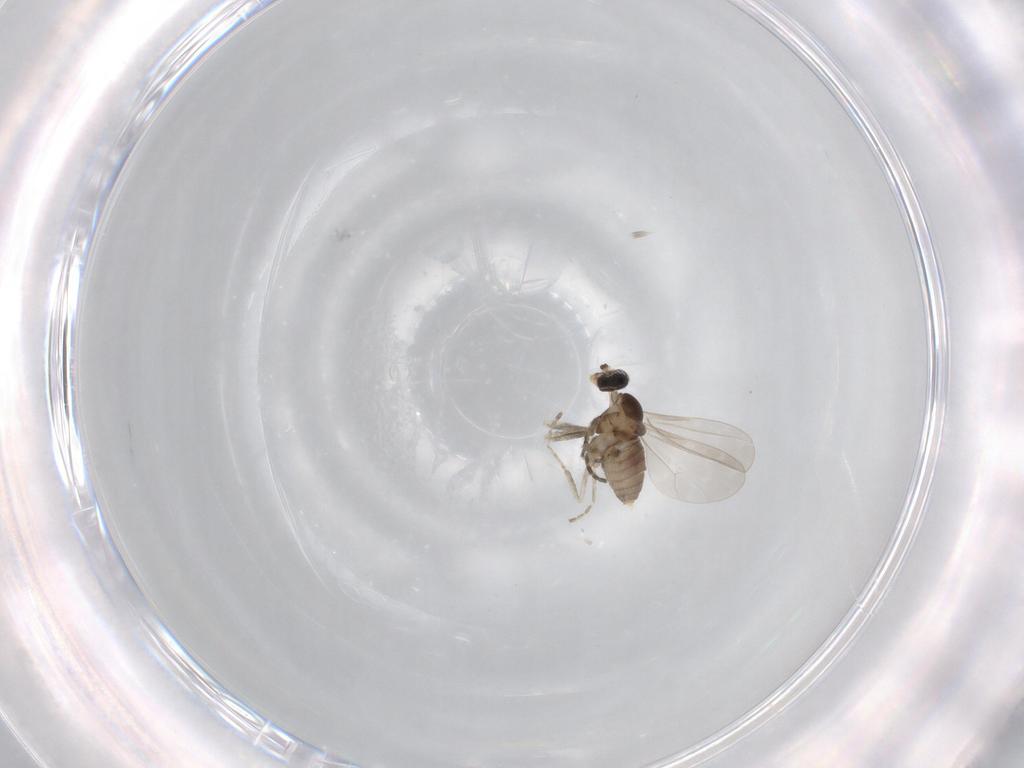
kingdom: Animalia
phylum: Arthropoda
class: Insecta
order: Diptera
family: Cecidomyiidae
